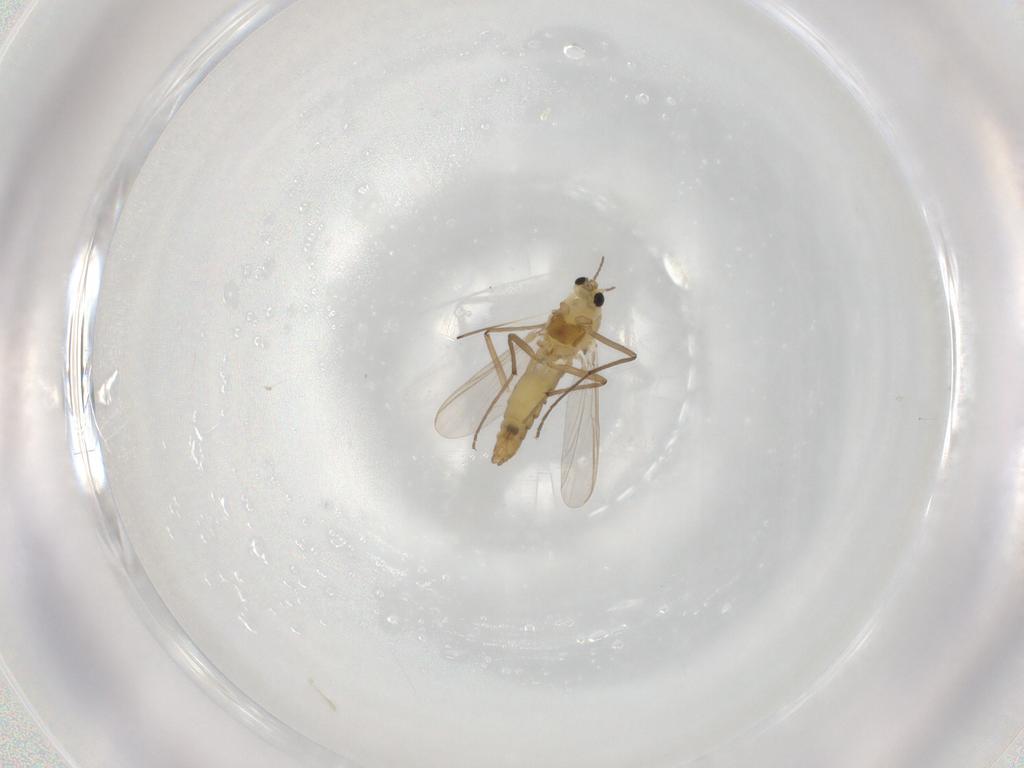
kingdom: Animalia
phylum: Arthropoda
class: Insecta
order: Diptera
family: Chironomidae
